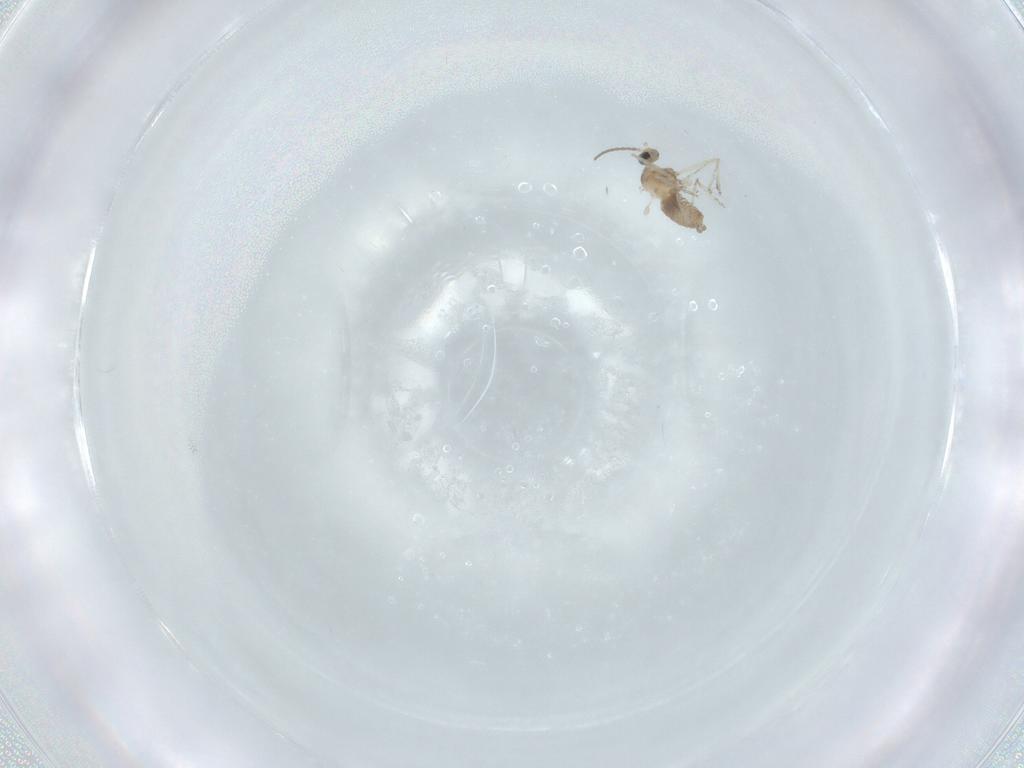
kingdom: Animalia
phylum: Arthropoda
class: Insecta
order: Diptera
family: Cecidomyiidae
